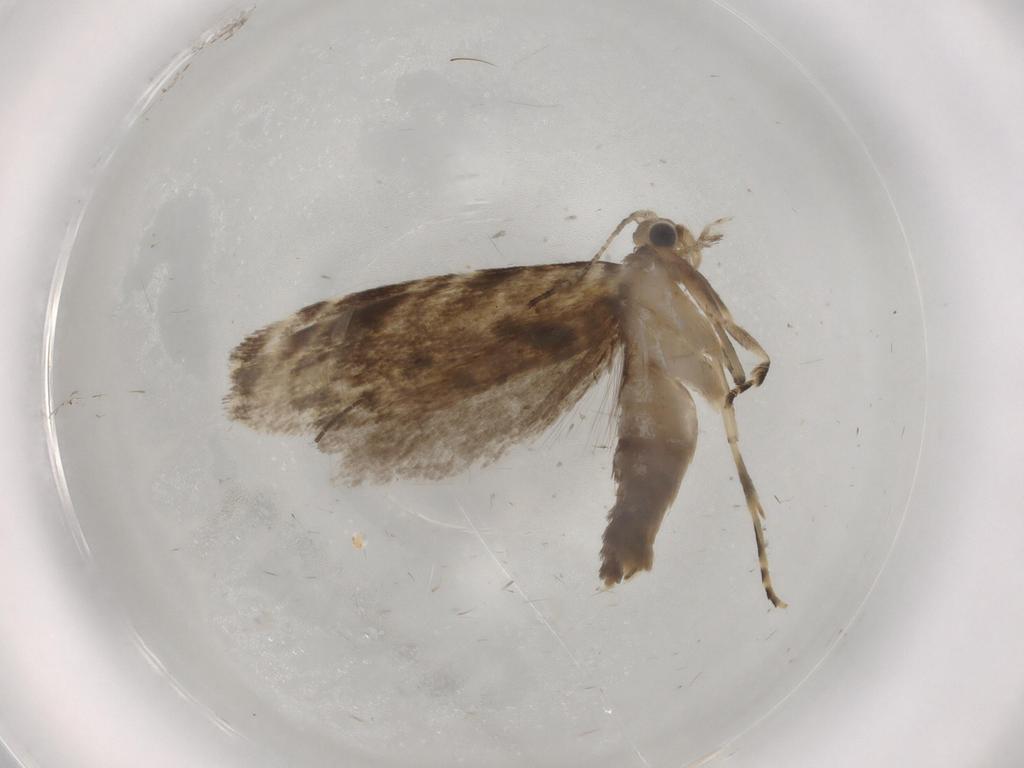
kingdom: Animalia
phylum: Arthropoda
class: Insecta
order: Lepidoptera
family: Tineidae
